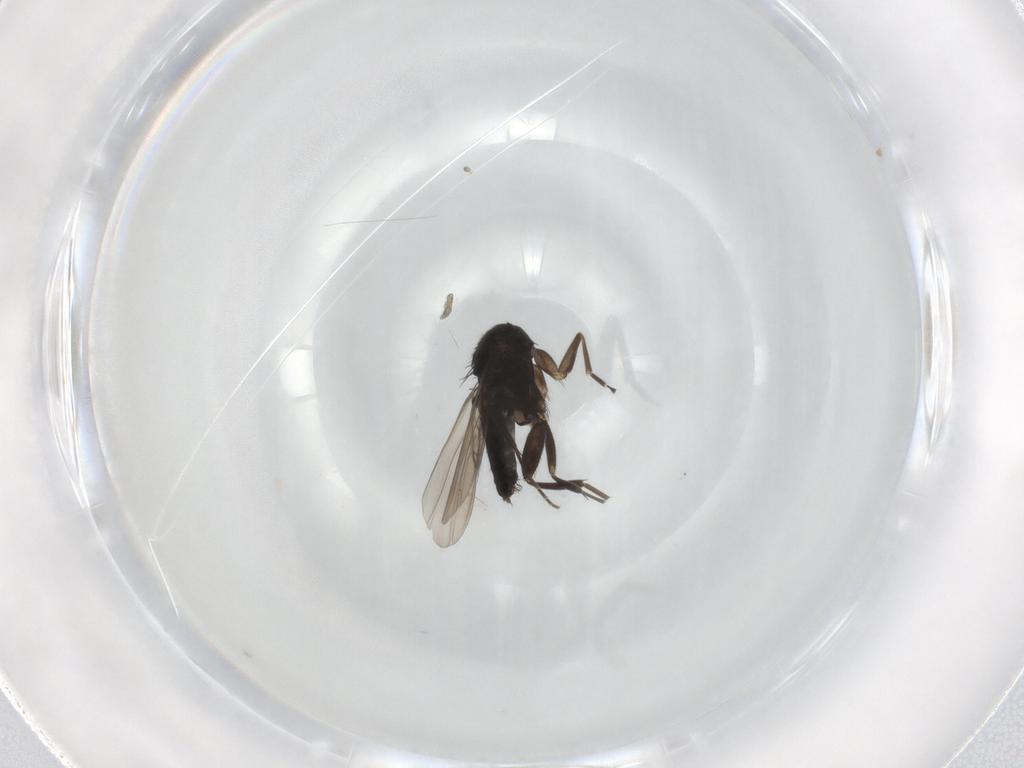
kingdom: Animalia
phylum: Arthropoda
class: Insecta
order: Diptera
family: Phoridae
